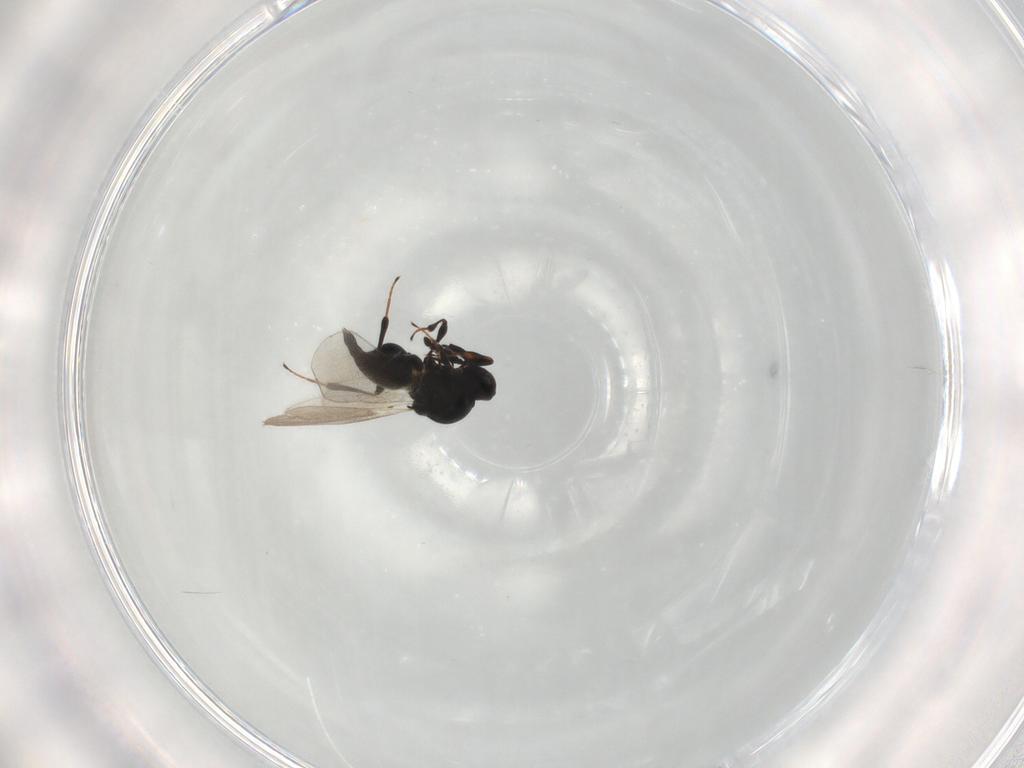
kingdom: Animalia
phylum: Arthropoda
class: Insecta
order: Hymenoptera
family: Platygastridae
